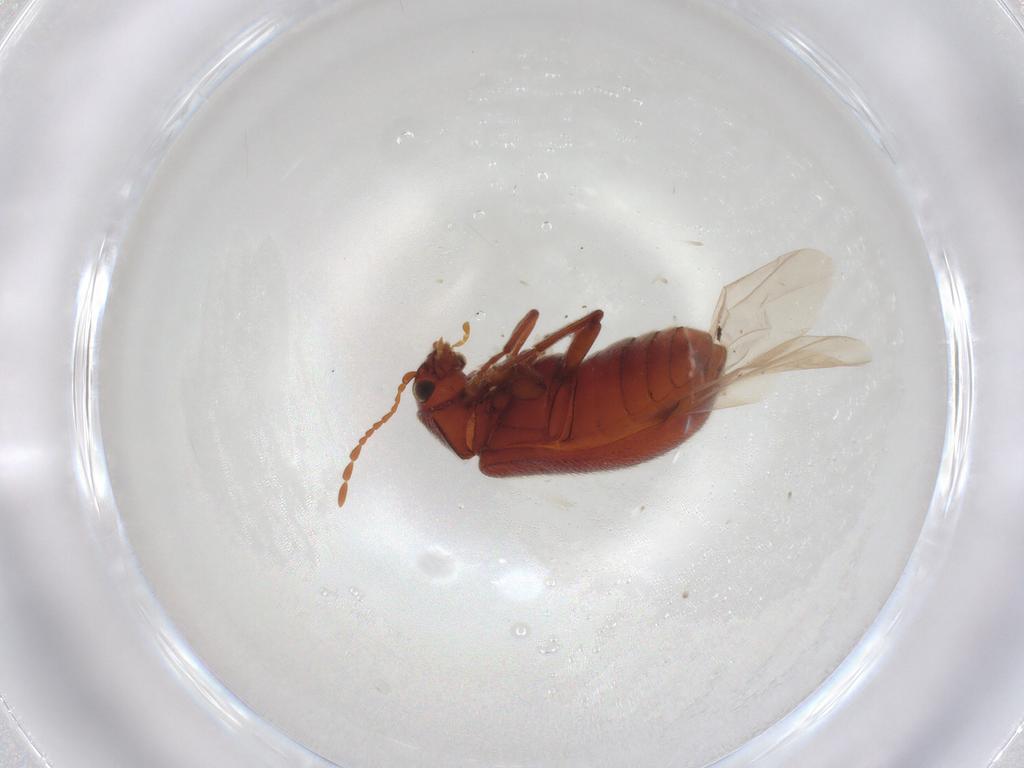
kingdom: Animalia
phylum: Arthropoda
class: Insecta
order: Coleoptera
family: Ptinidae
